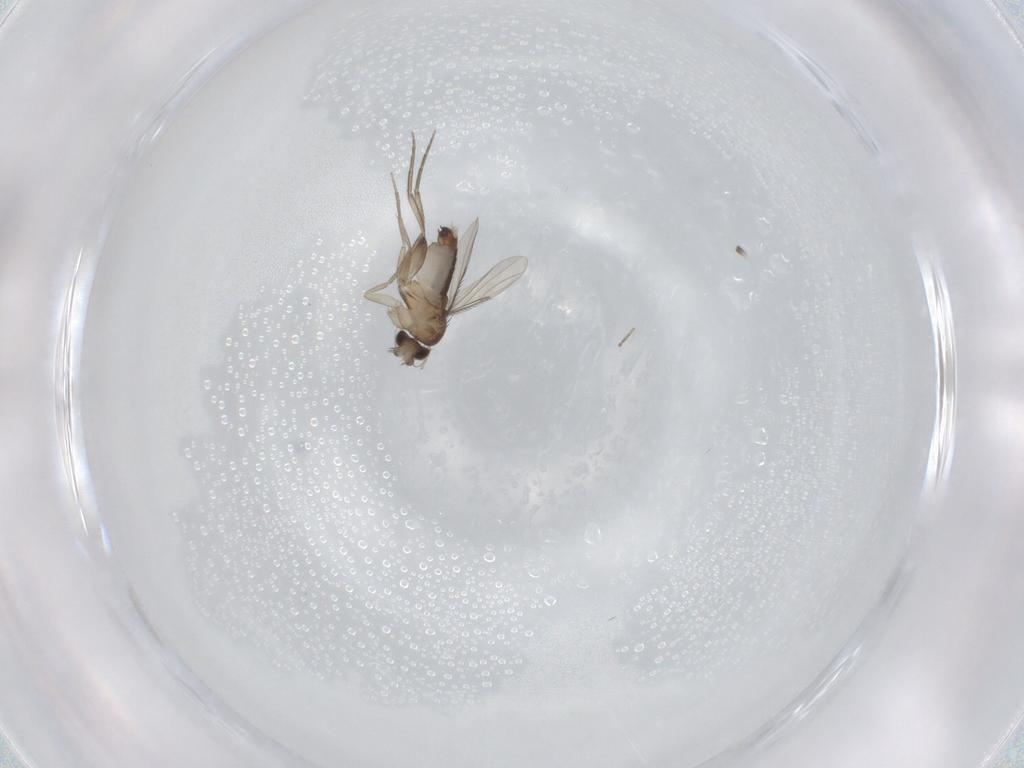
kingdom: Animalia
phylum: Arthropoda
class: Insecta
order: Diptera
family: Phoridae
